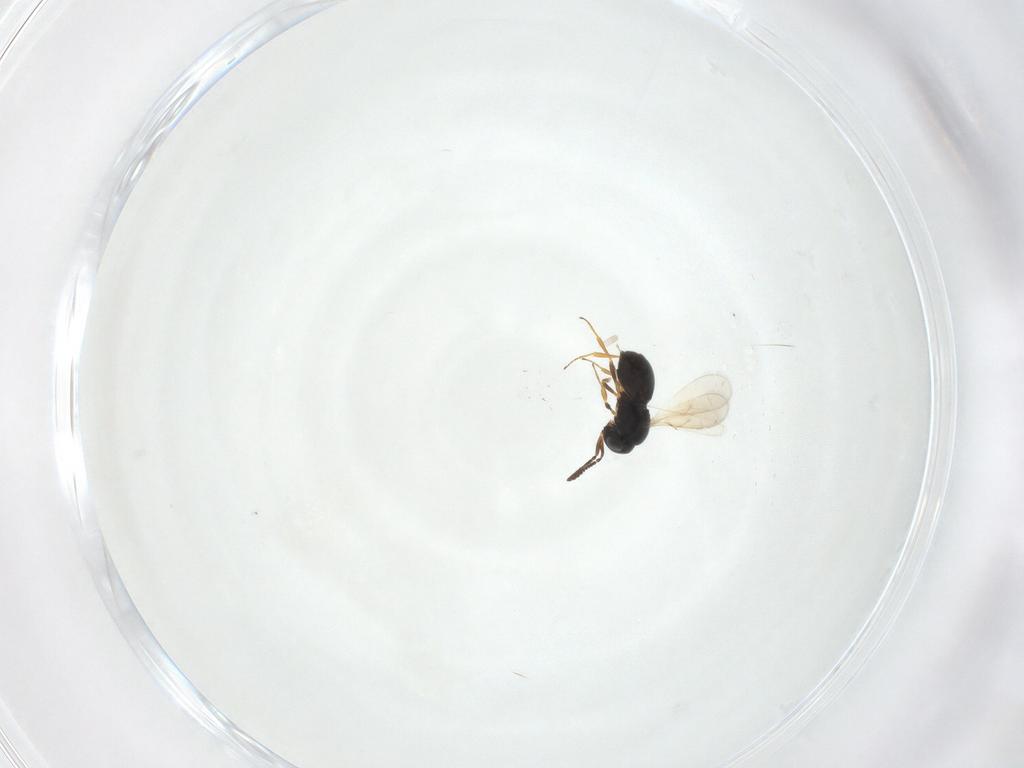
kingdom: Animalia
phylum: Arthropoda
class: Insecta
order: Hymenoptera
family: Scelionidae
